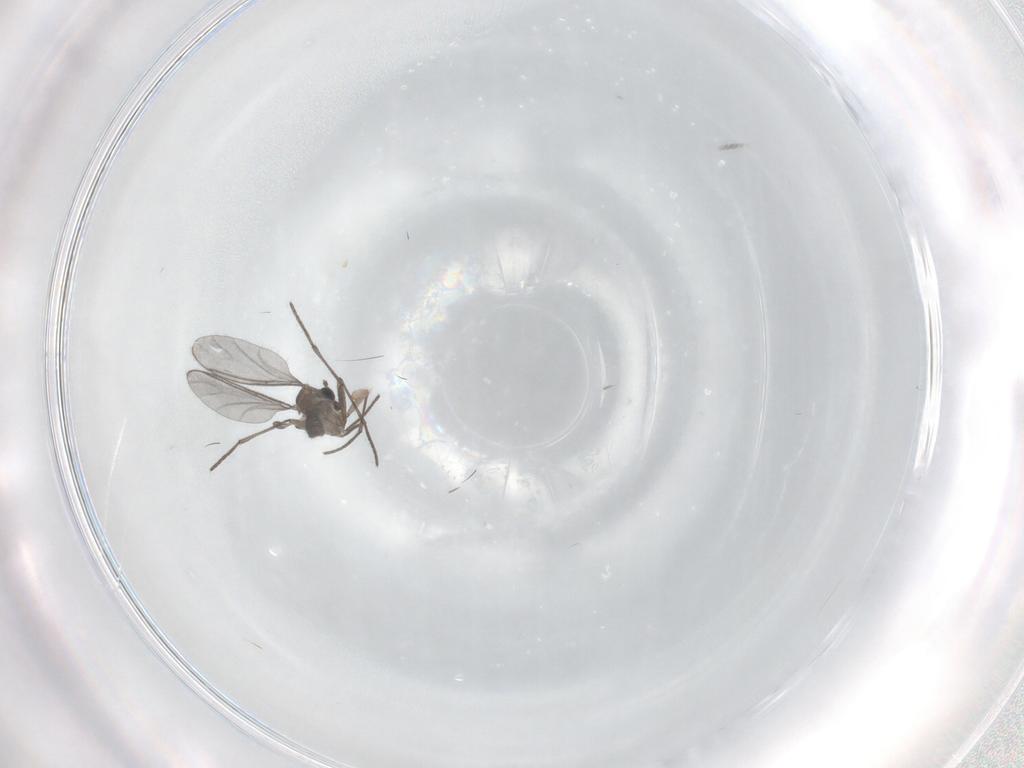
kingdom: Animalia
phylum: Arthropoda
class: Insecta
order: Diptera
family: Sciaridae
